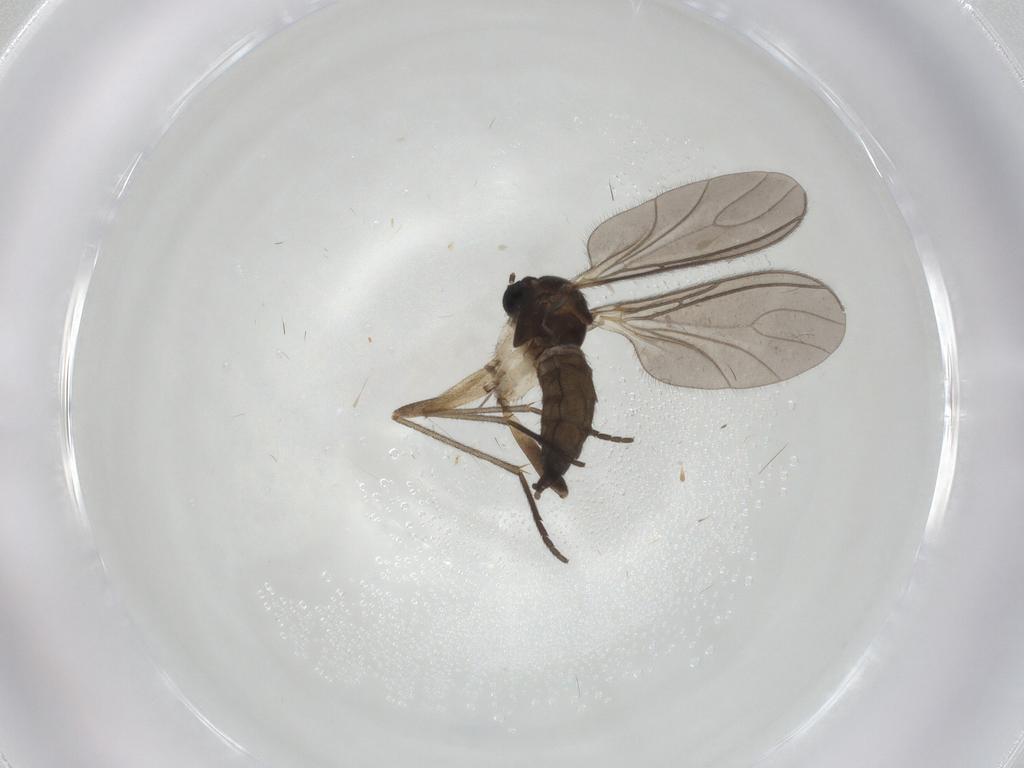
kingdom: Animalia
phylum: Arthropoda
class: Insecta
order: Diptera
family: Sciaridae
